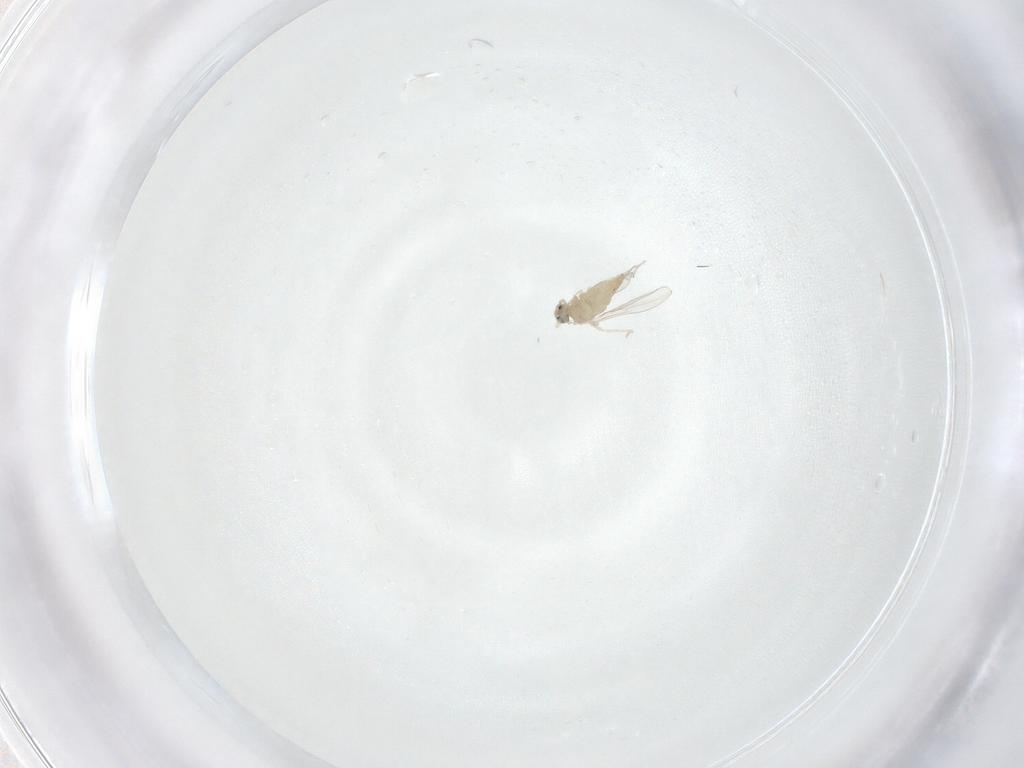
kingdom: Animalia
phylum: Arthropoda
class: Insecta
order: Diptera
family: Cecidomyiidae
